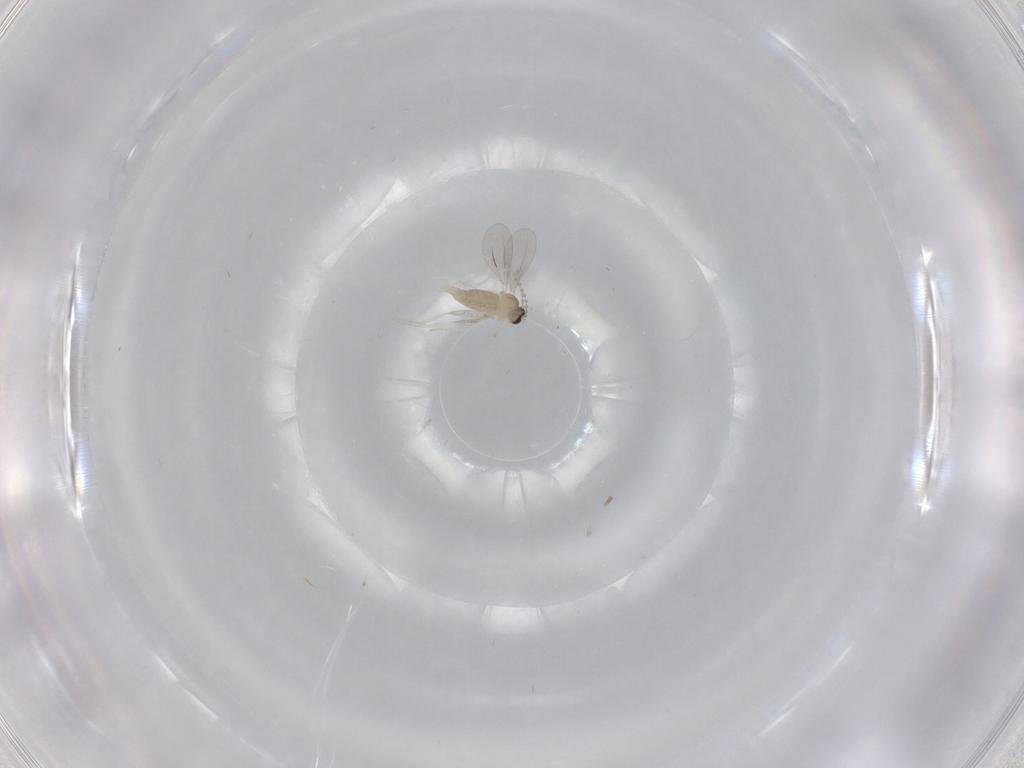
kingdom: Animalia
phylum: Arthropoda
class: Insecta
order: Diptera
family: Cecidomyiidae
